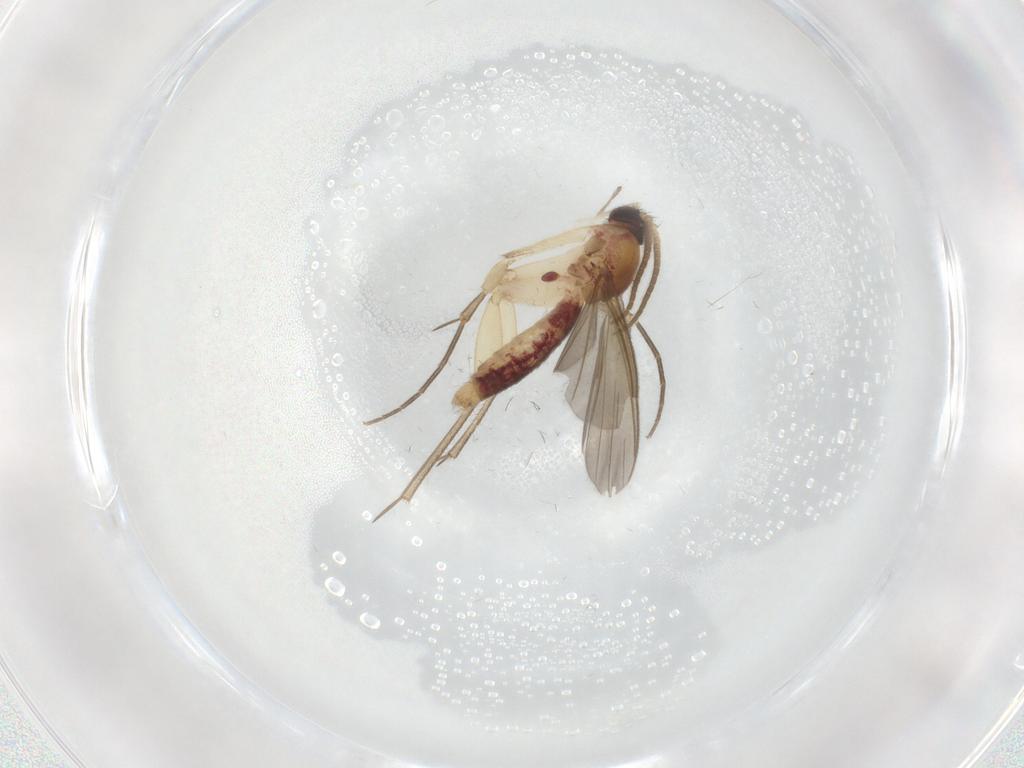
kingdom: Animalia
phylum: Arthropoda
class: Insecta
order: Diptera
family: Mycetophilidae
